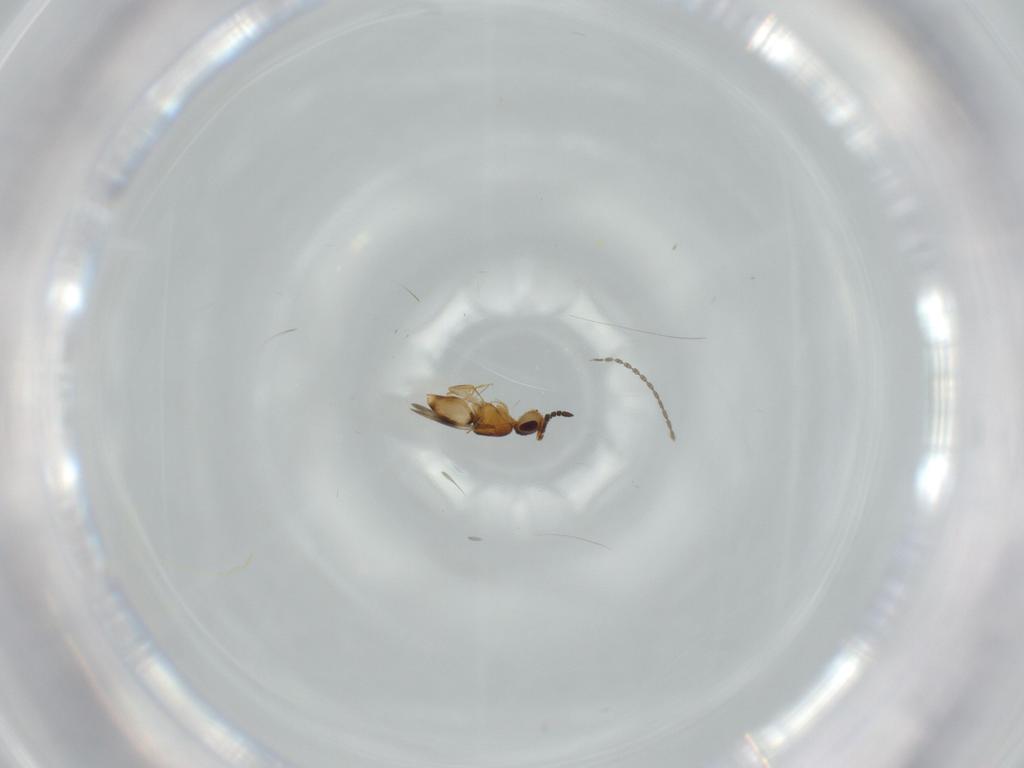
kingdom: Animalia
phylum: Arthropoda
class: Insecta
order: Hymenoptera
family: Ceraphronidae
